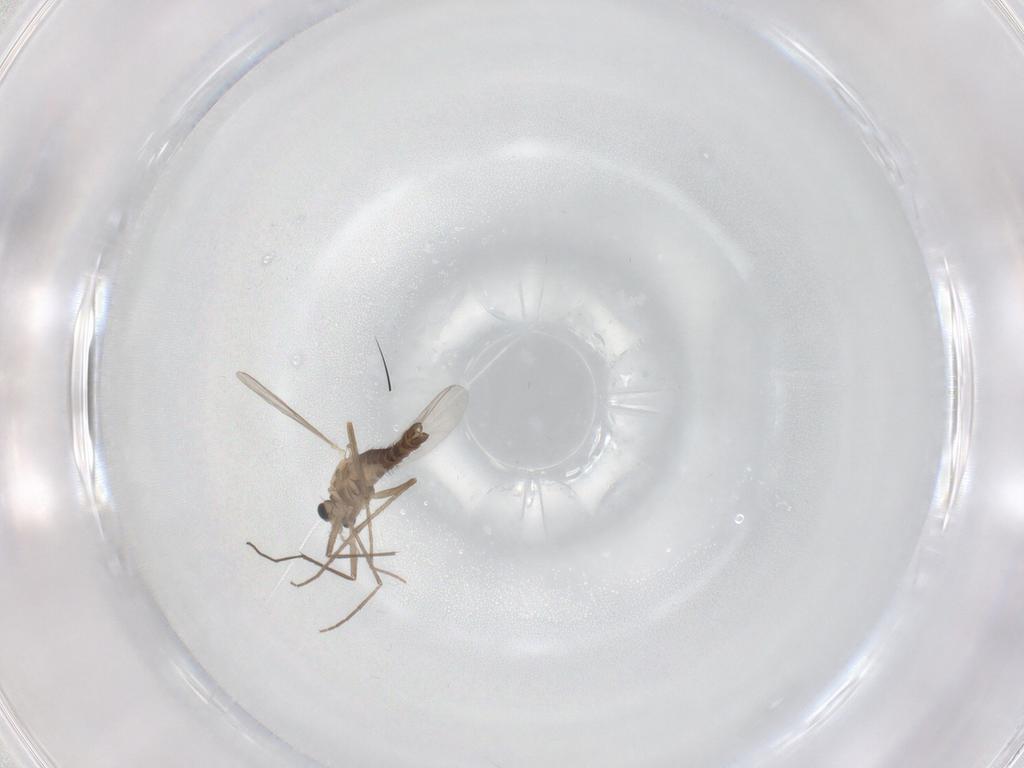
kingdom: Animalia
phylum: Arthropoda
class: Insecta
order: Diptera
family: Chironomidae
